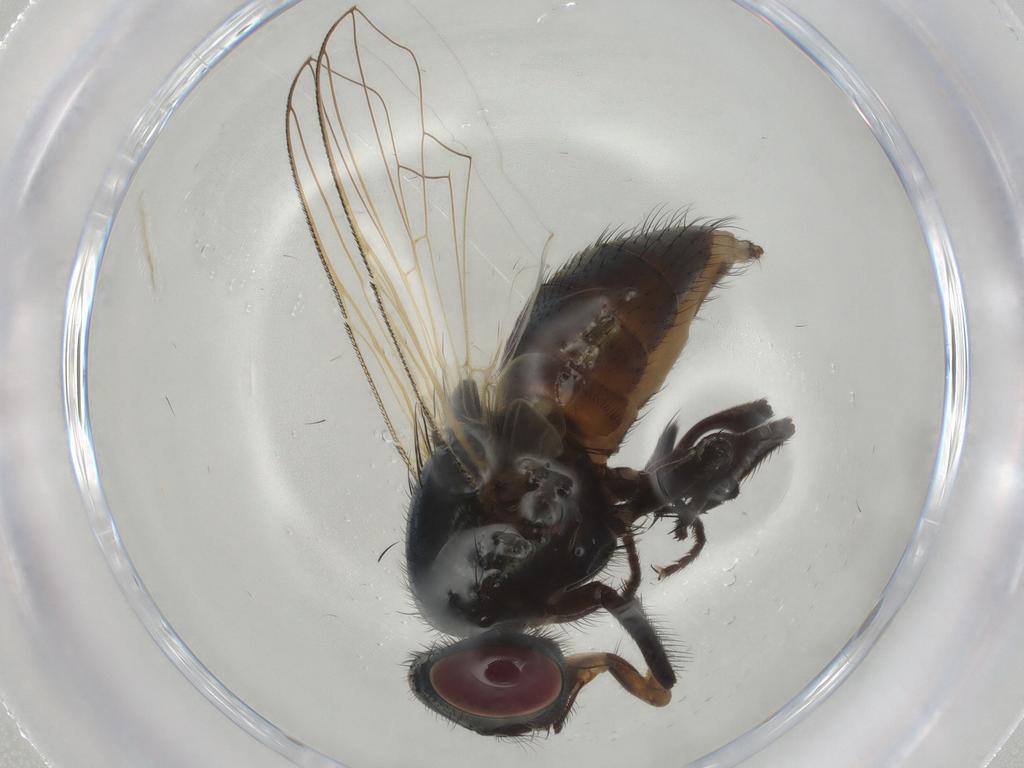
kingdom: Animalia
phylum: Arthropoda
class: Insecta
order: Diptera
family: Muscidae
